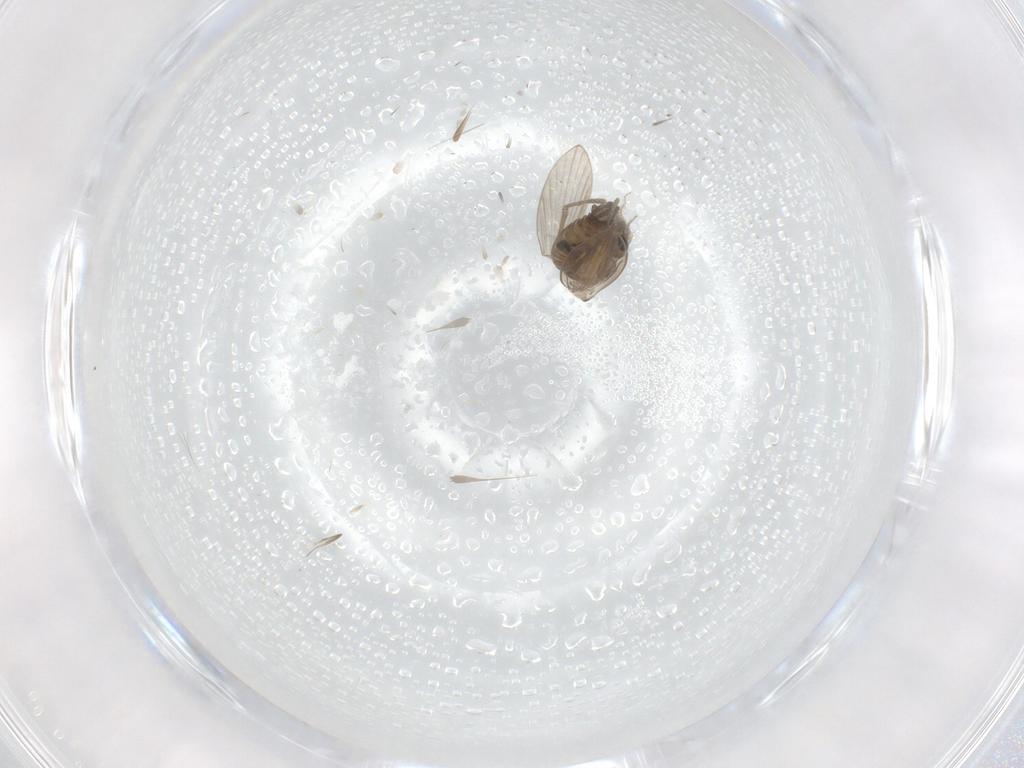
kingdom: Animalia
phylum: Arthropoda
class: Insecta
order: Diptera
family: Psychodidae
